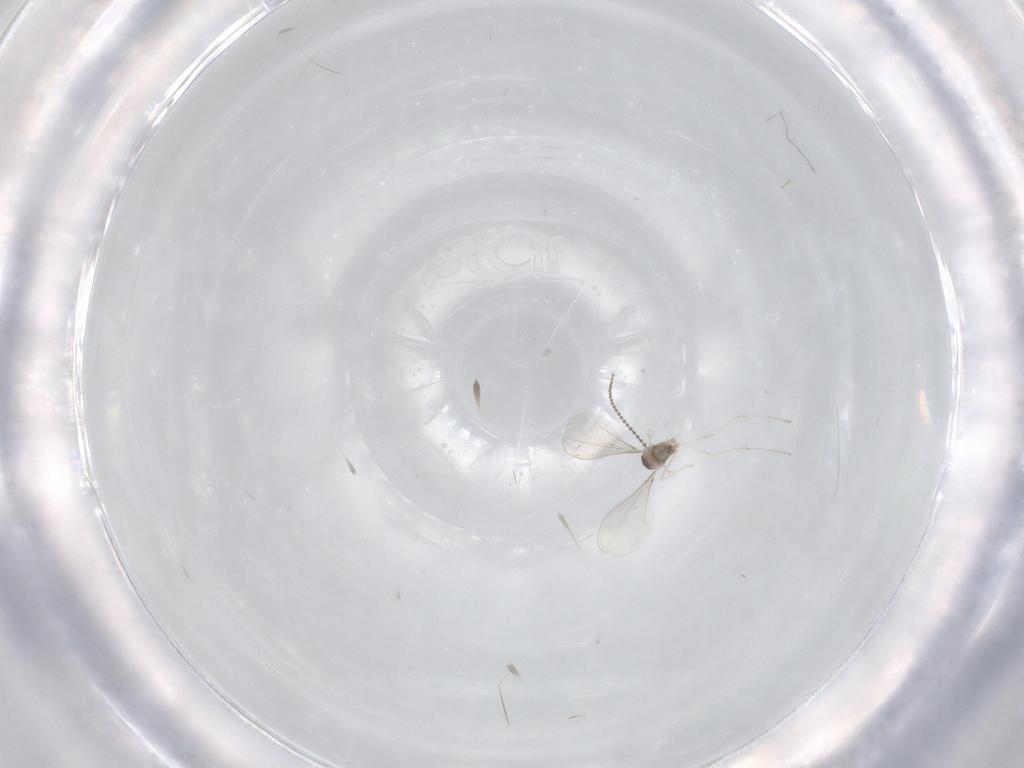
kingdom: Animalia
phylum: Arthropoda
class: Insecta
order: Diptera
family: Cecidomyiidae
